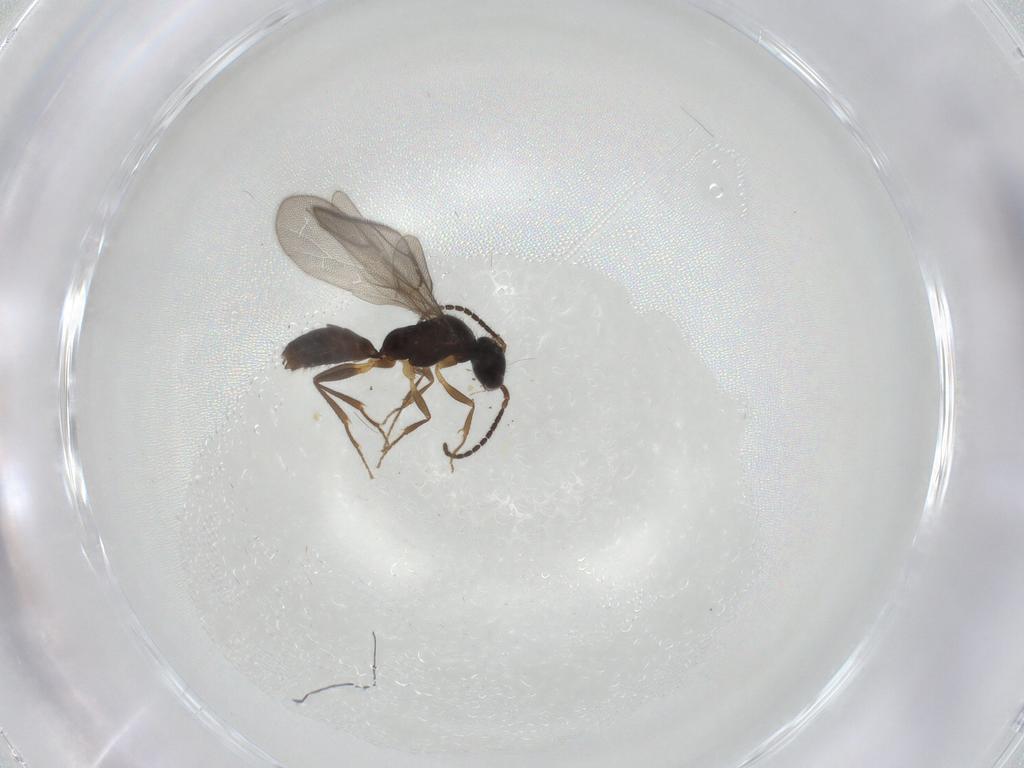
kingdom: Animalia
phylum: Arthropoda
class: Insecta
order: Hymenoptera
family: Bethylidae
